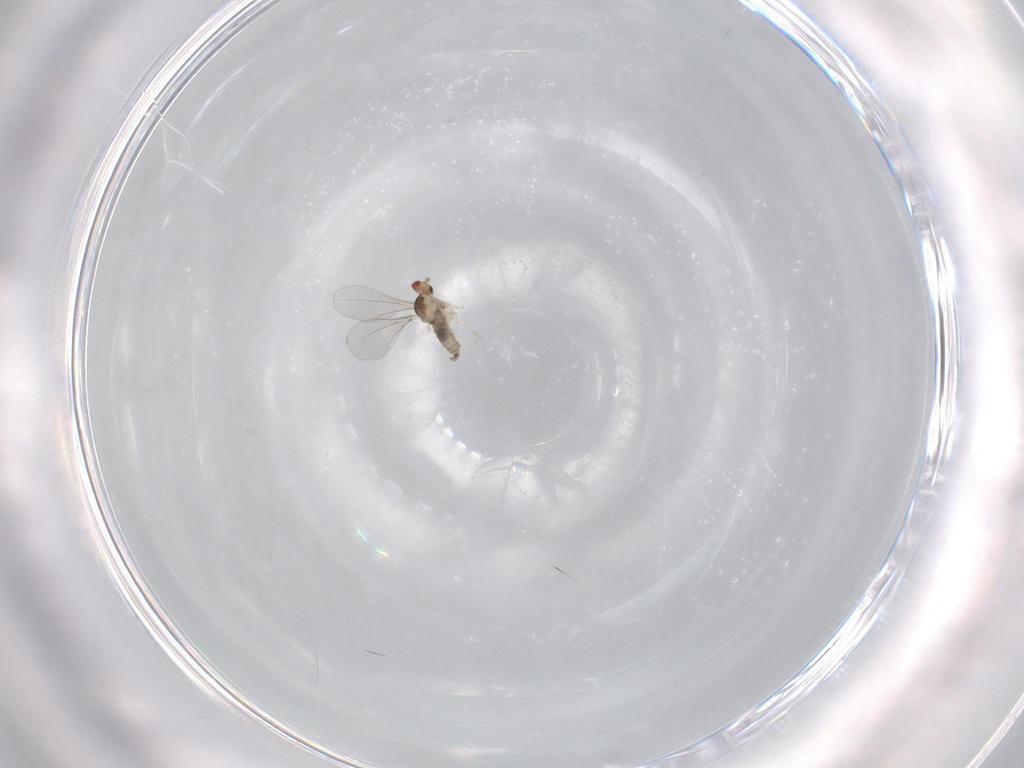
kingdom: Animalia
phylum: Arthropoda
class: Insecta
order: Diptera
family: Cecidomyiidae
